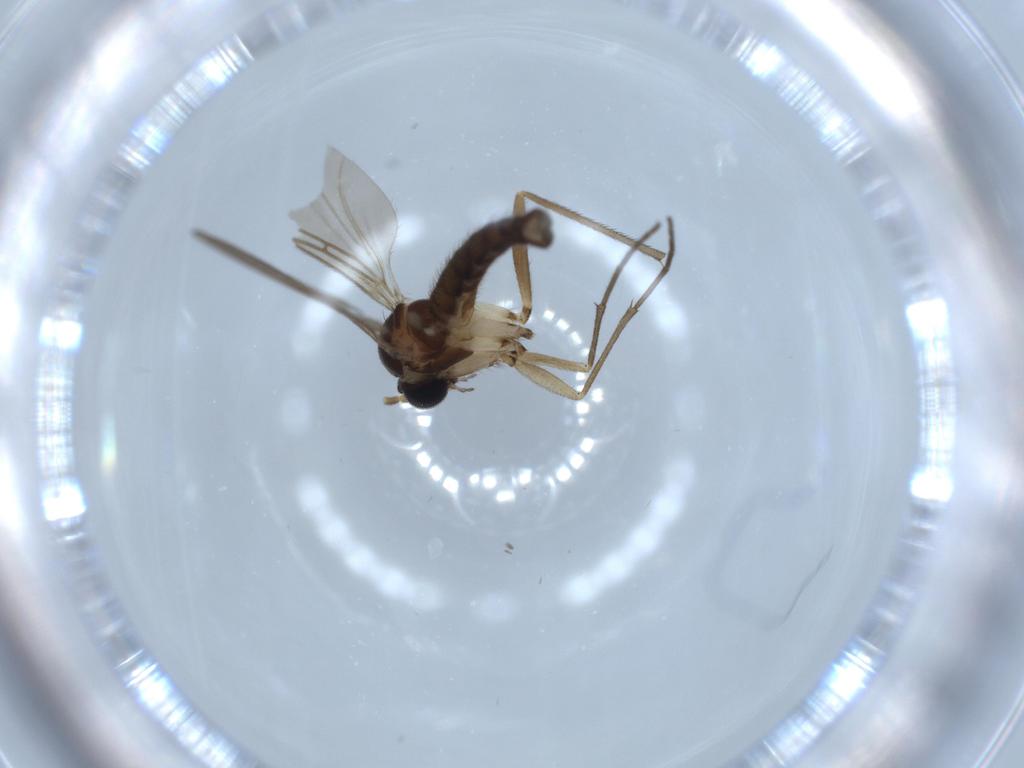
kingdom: Animalia
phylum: Arthropoda
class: Insecta
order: Diptera
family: Sciaridae
